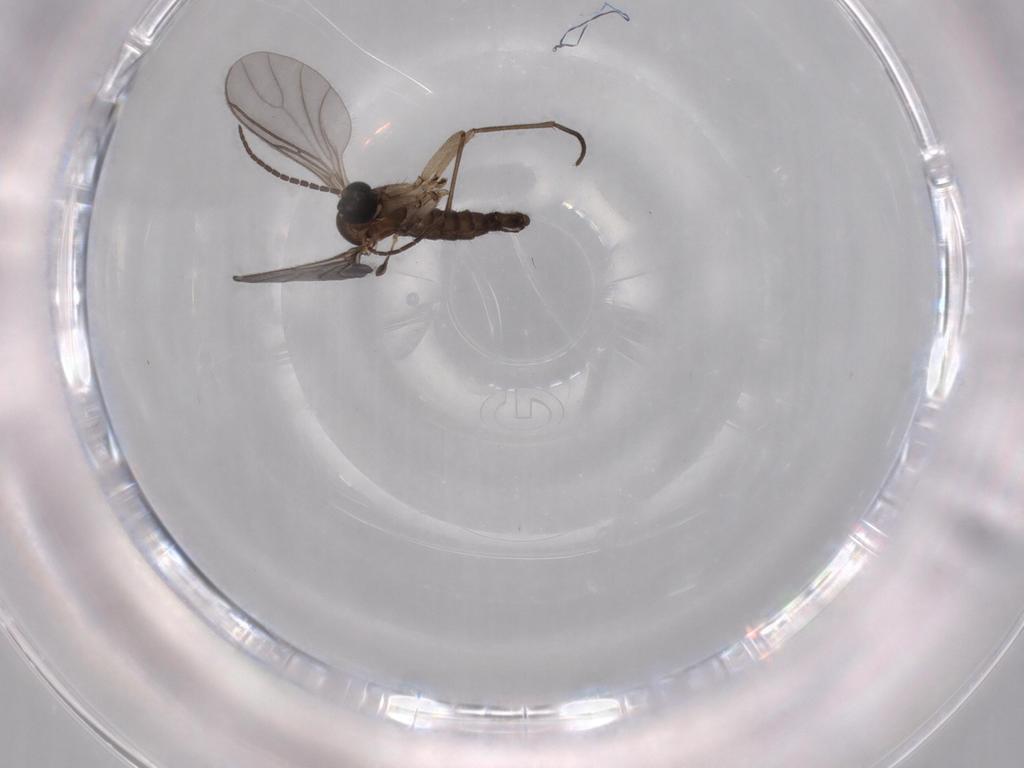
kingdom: Animalia
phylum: Arthropoda
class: Insecta
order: Diptera
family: Sciaridae
